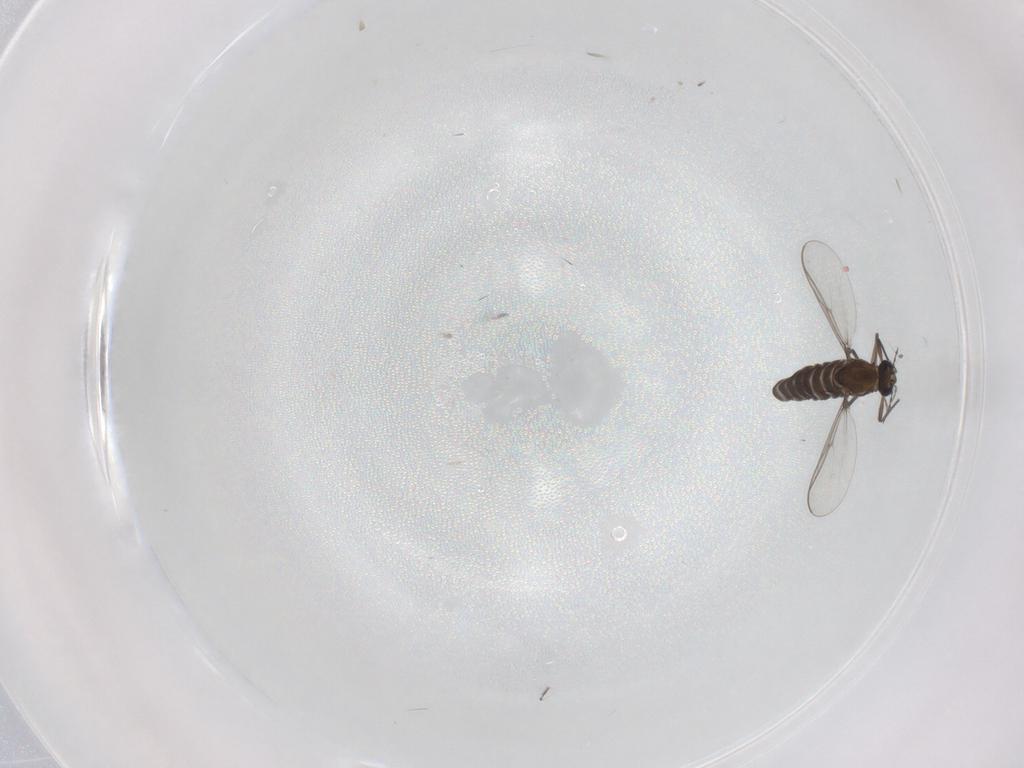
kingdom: Animalia
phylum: Arthropoda
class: Insecta
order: Diptera
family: Chironomidae
